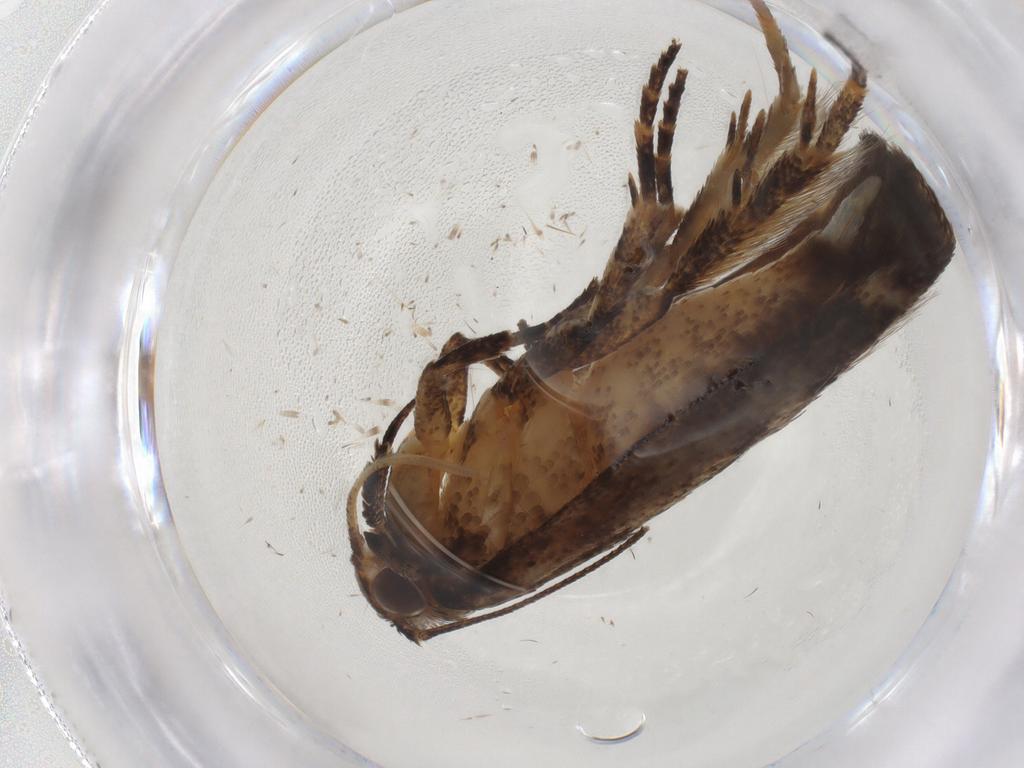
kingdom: Animalia
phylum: Arthropoda
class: Insecta
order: Lepidoptera
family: Gelechiidae
